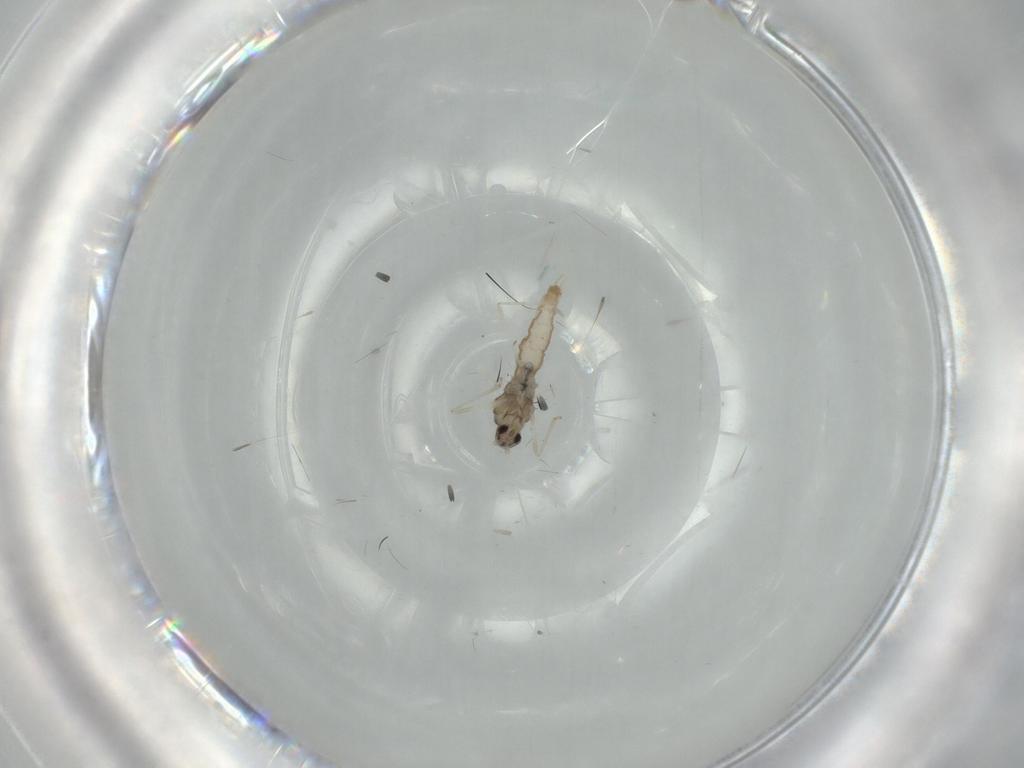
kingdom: Animalia
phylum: Arthropoda
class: Insecta
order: Diptera
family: Cecidomyiidae
